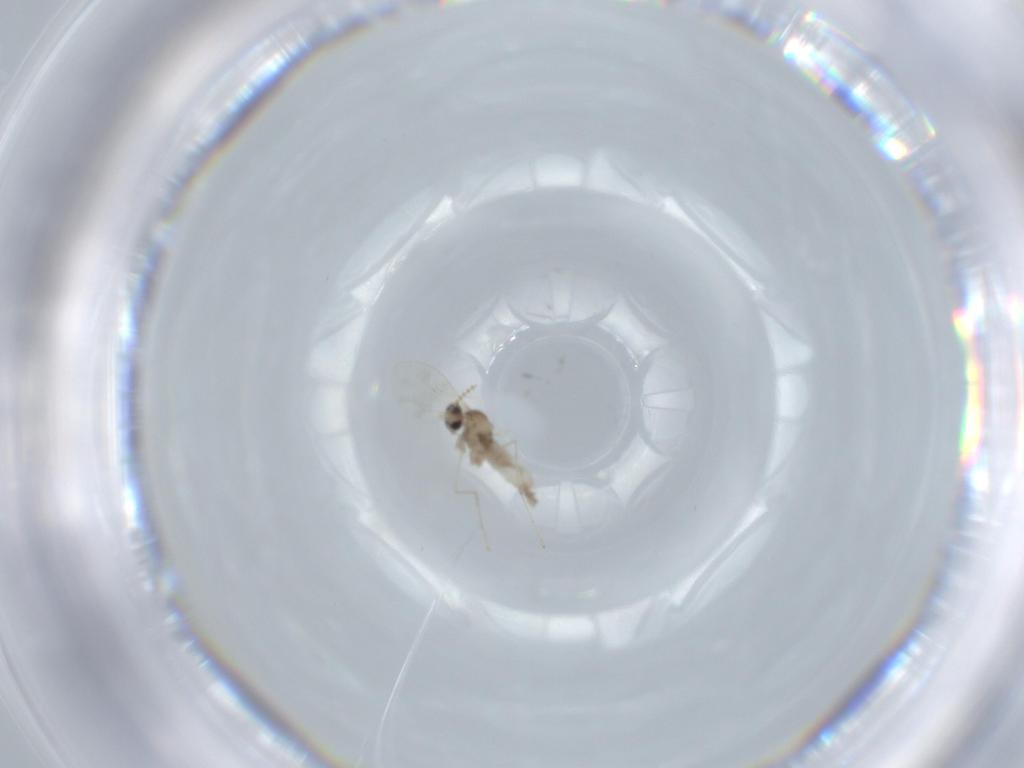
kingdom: Animalia
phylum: Arthropoda
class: Insecta
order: Diptera
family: Cecidomyiidae
